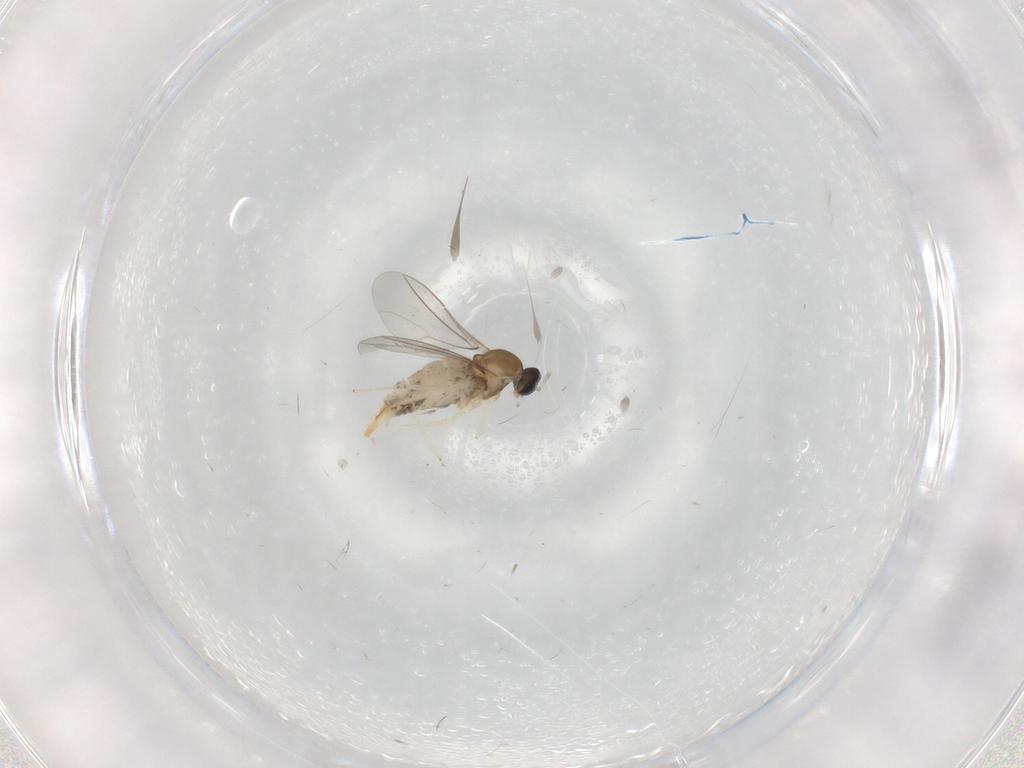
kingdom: Animalia
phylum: Arthropoda
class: Insecta
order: Diptera
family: Cecidomyiidae
